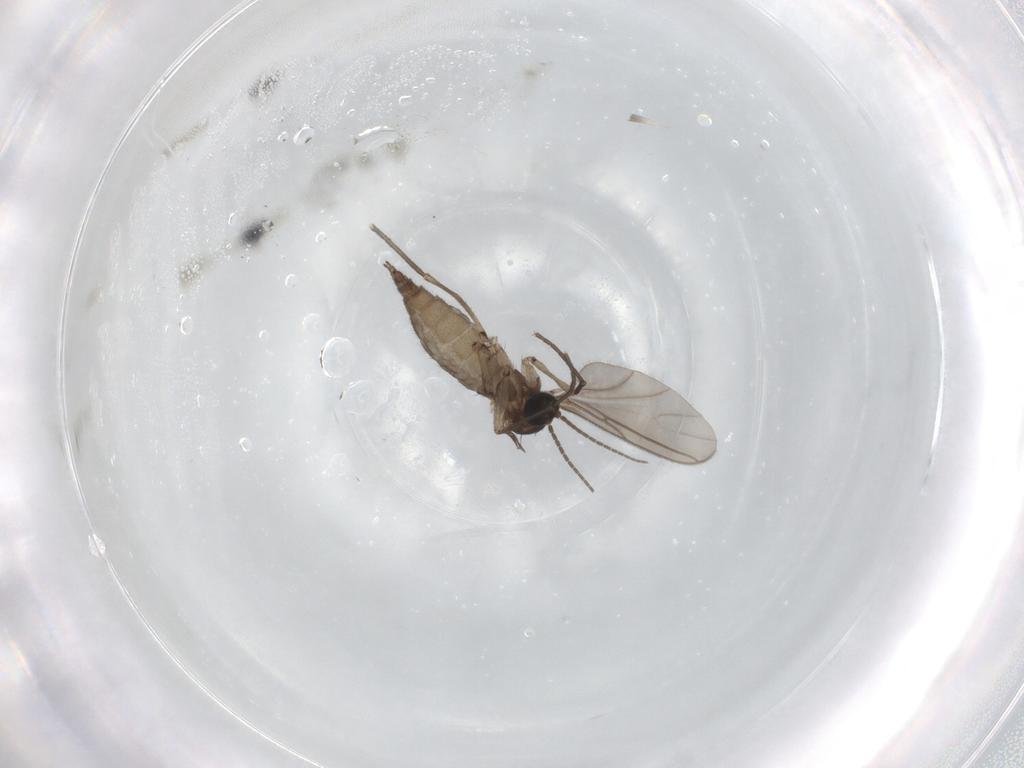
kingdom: Animalia
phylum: Arthropoda
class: Insecta
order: Diptera
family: Sciaridae
